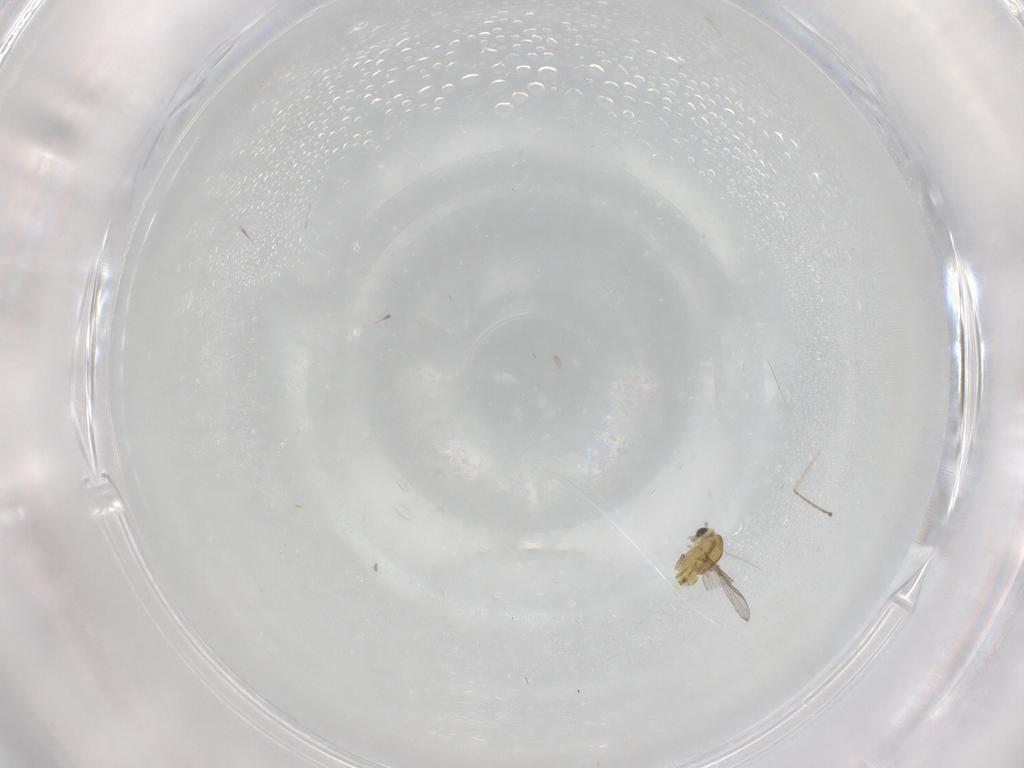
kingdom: Animalia
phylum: Arthropoda
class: Insecta
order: Diptera
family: Chironomidae
